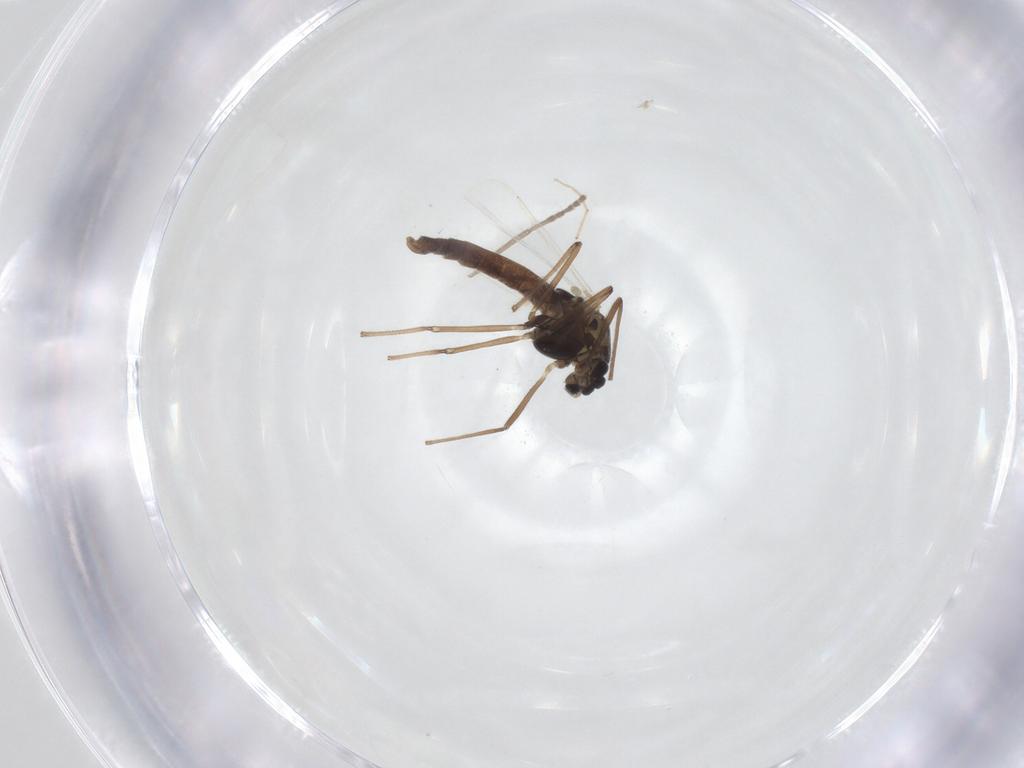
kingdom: Animalia
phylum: Arthropoda
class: Insecta
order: Diptera
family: Chironomidae
